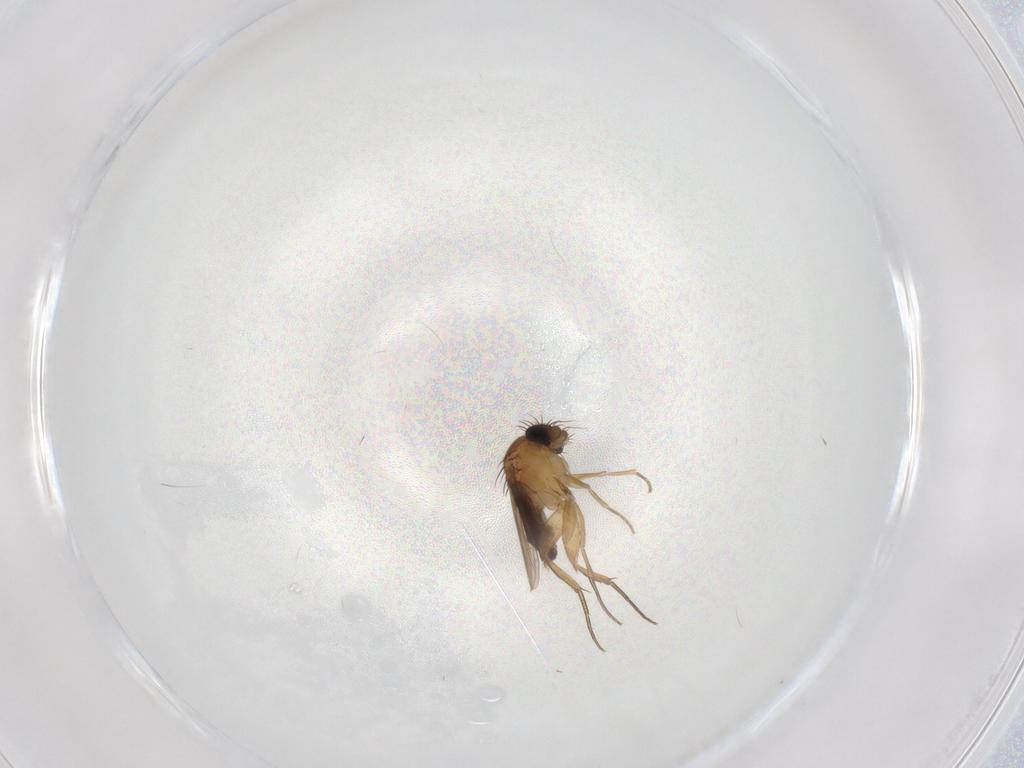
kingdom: Animalia
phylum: Arthropoda
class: Insecta
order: Diptera
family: Phoridae
